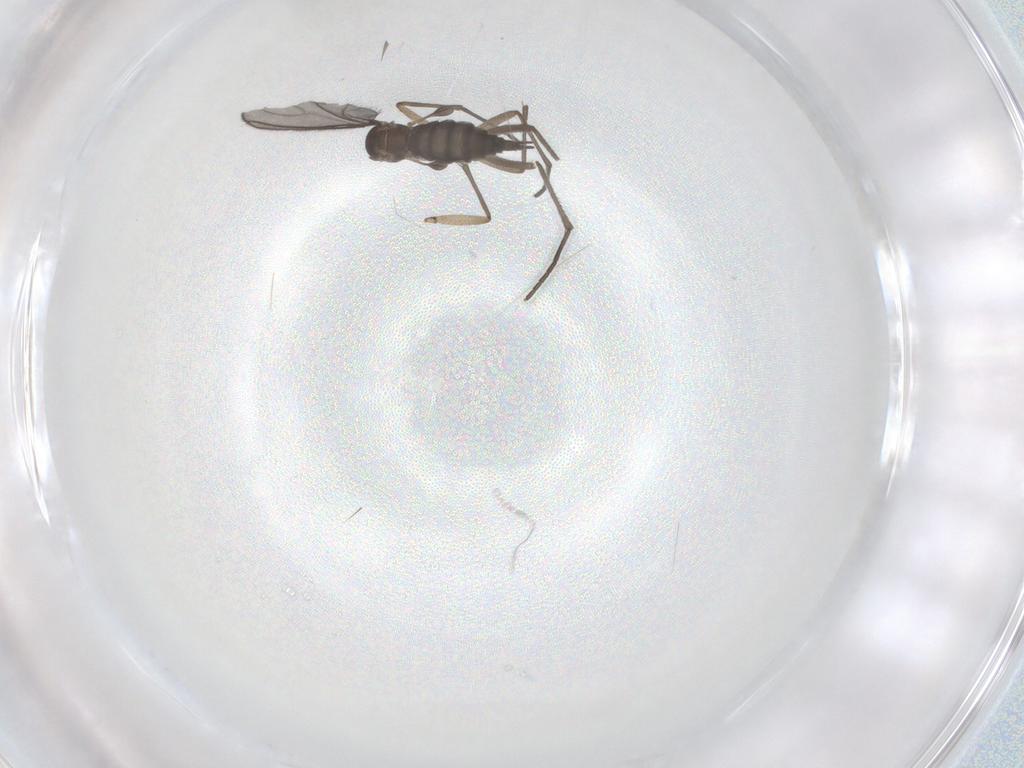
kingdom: Animalia
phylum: Arthropoda
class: Insecta
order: Diptera
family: Sciaridae
